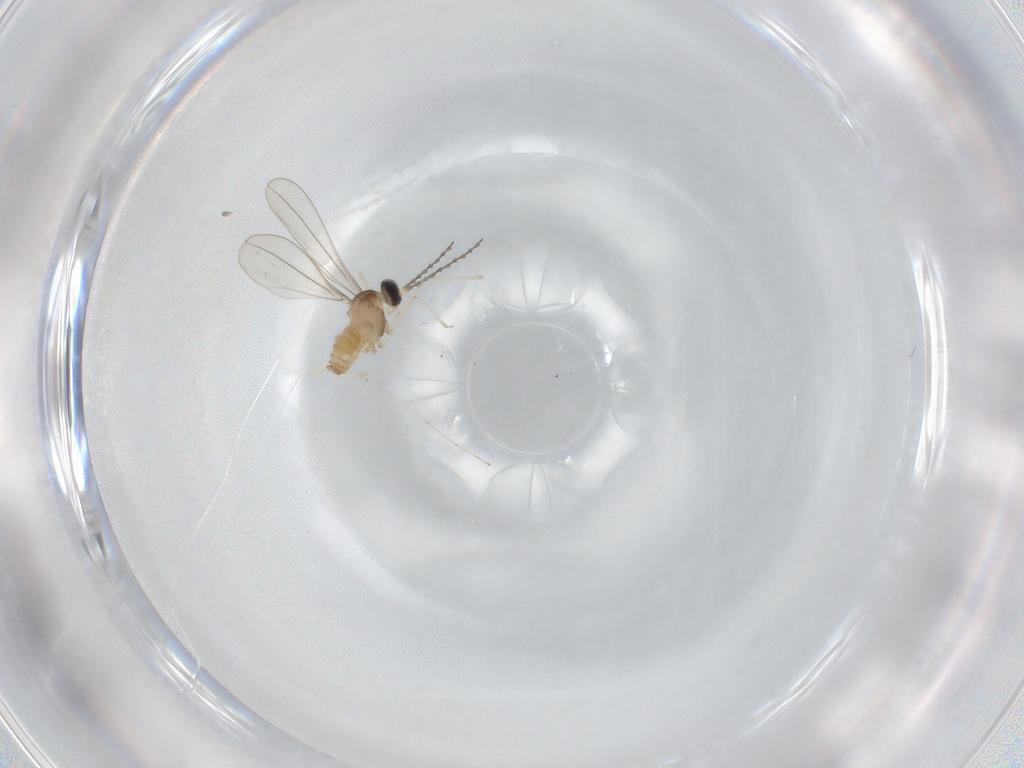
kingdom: Animalia
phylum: Arthropoda
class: Insecta
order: Diptera
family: Cecidomyiidae
